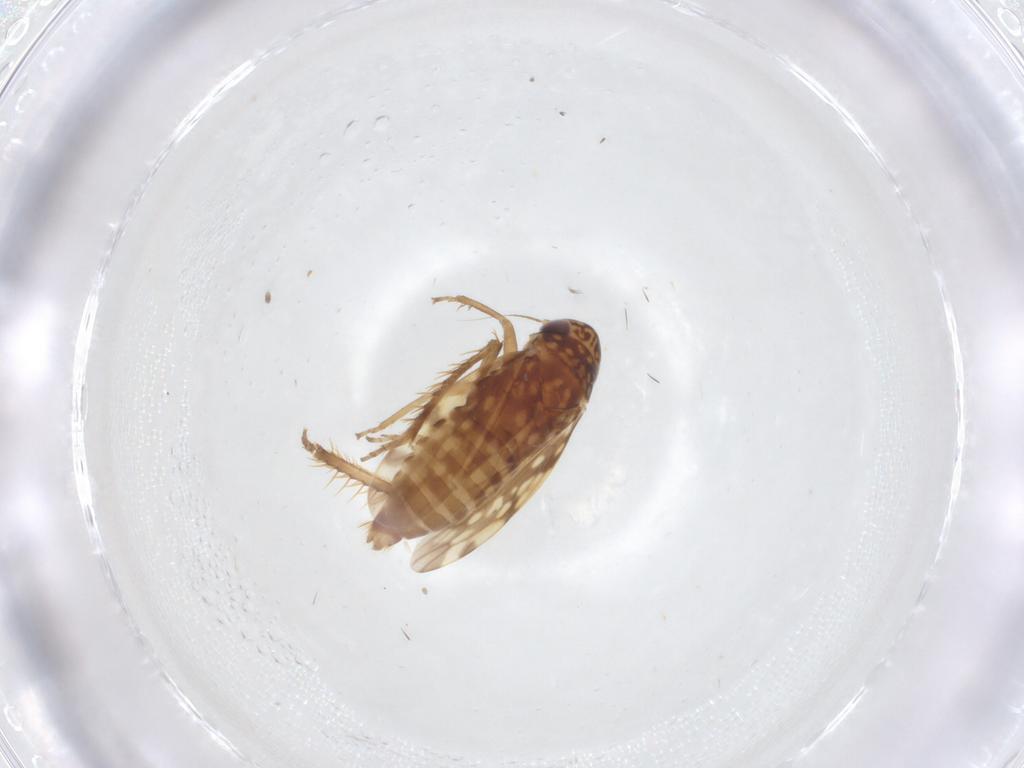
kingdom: Animalia
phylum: Arthropoda
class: Insecta
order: Hemiptera
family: Cicadellidae
